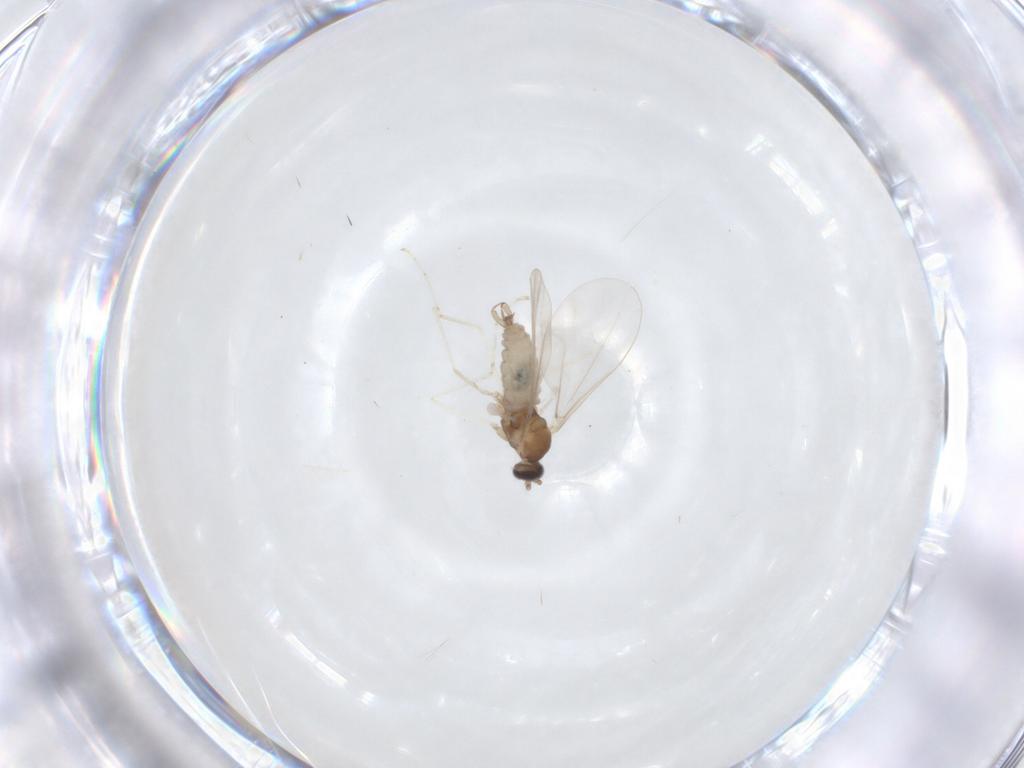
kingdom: Animalia
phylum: Arthropoda
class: Insecta
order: Diptera
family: Cecidomyiidae
